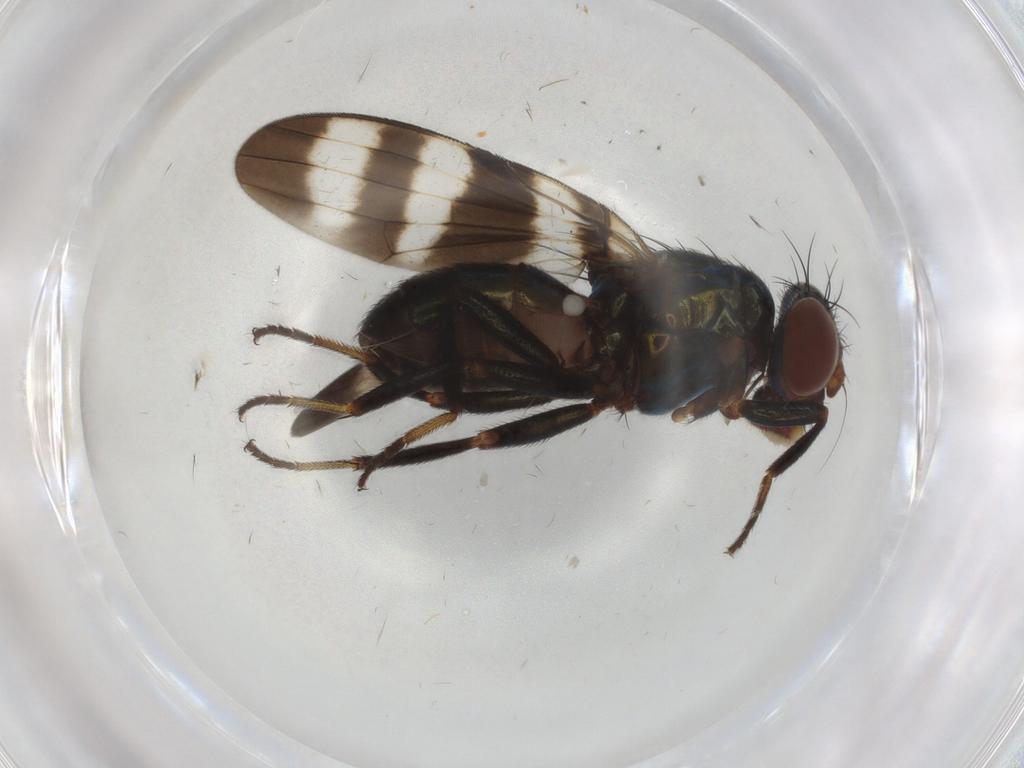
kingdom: Animalia
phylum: Arthropoda
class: Insecta
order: Diptera
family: Ulidiidae
